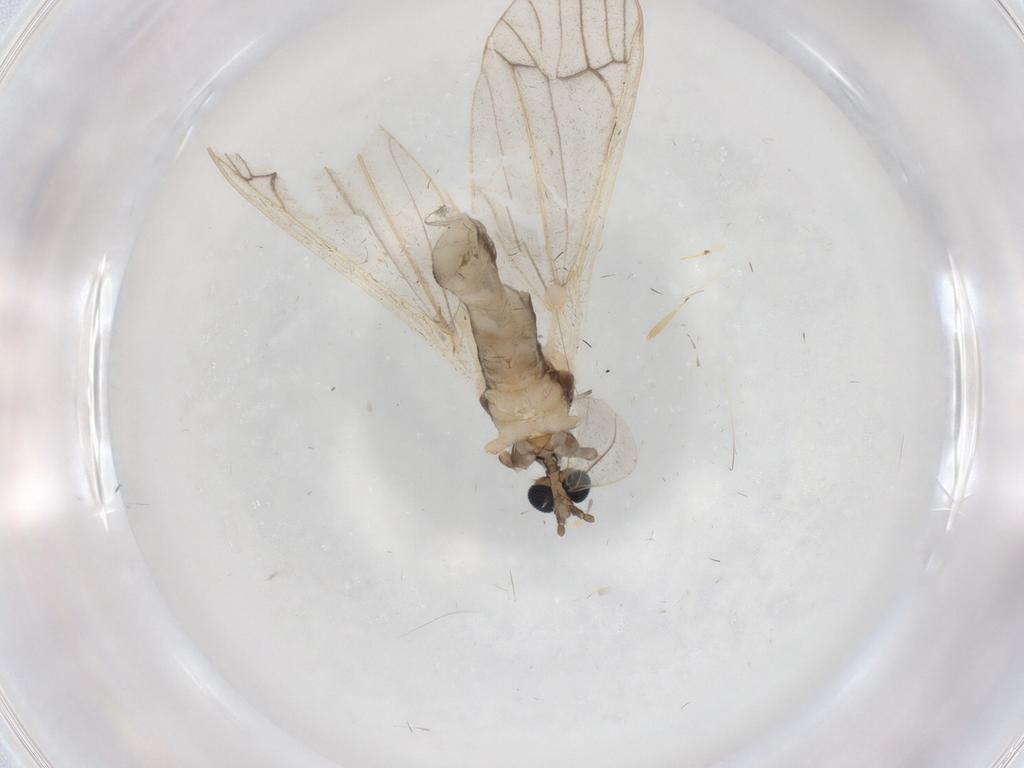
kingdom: Animalia
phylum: Arthropoda
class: Insecta
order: Diptera
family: Cecidomyiidae
